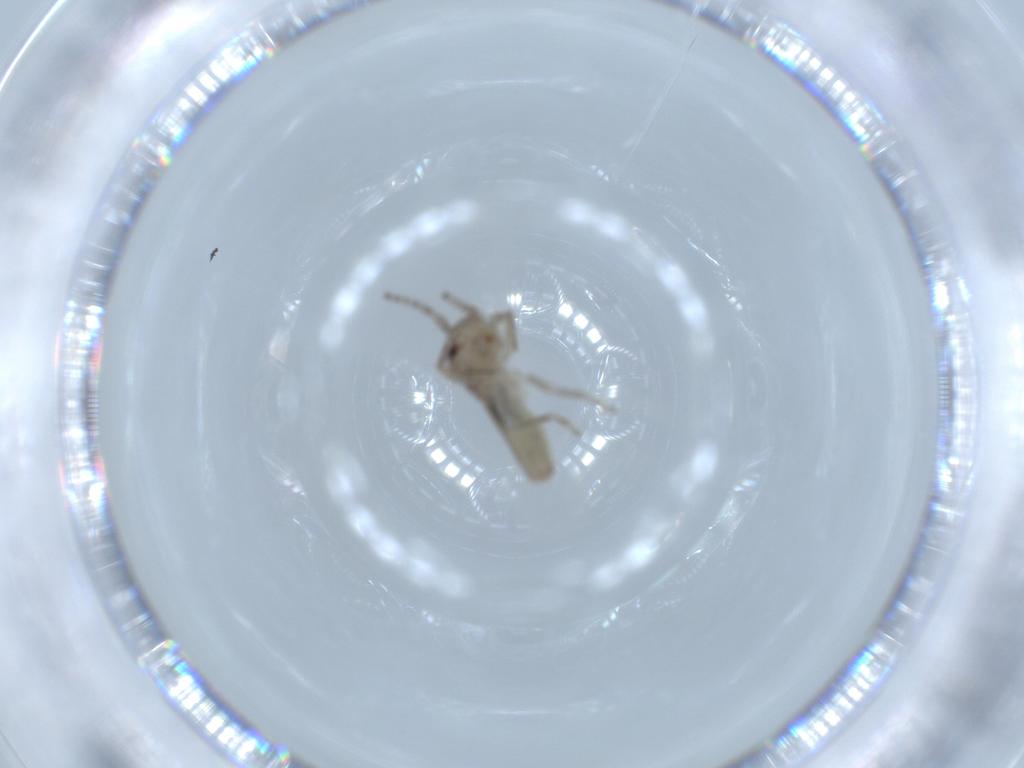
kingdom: Animalia
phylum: Arthropoda
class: Insecta
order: Orthoptera
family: Gryllidae
